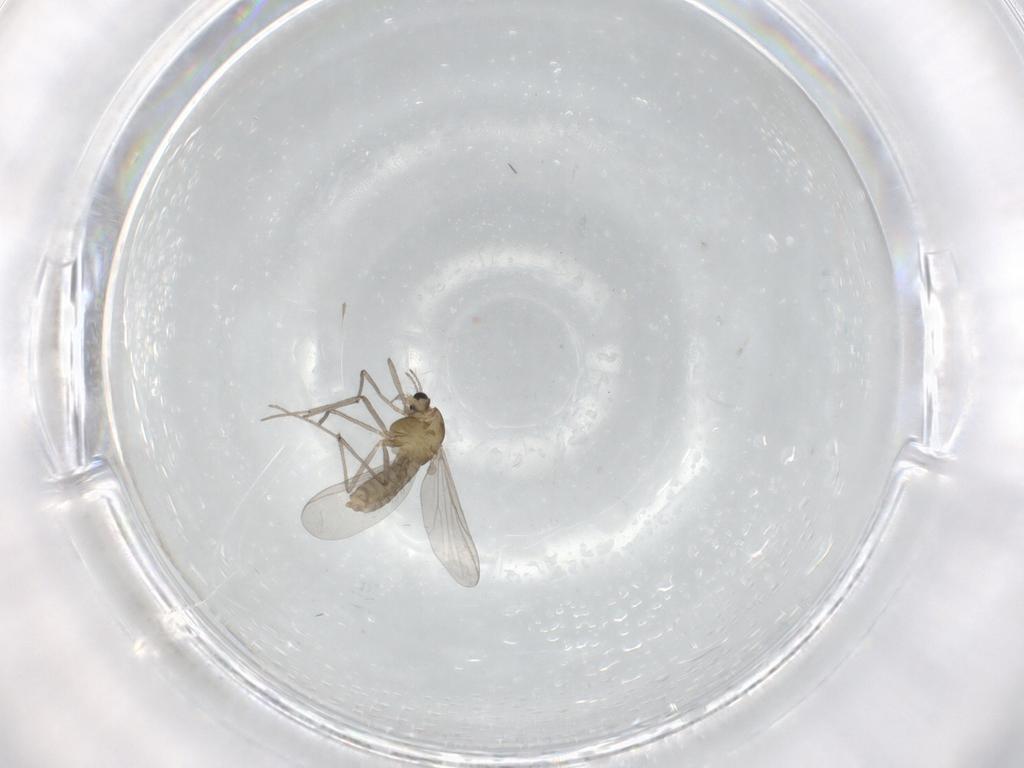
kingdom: Animalia
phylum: Arthropoda
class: Insecta
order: Diptera
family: Chironomidae
